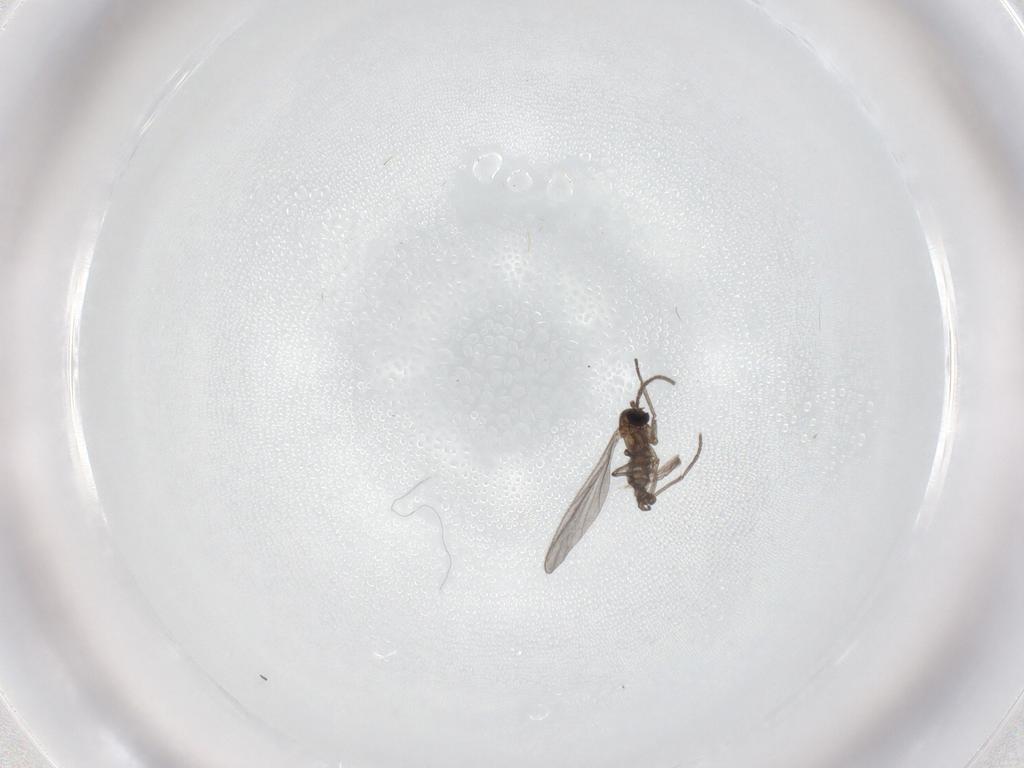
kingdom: Animalia
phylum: Arthropoda
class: Insecta
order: Diptera
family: Sciaridae
